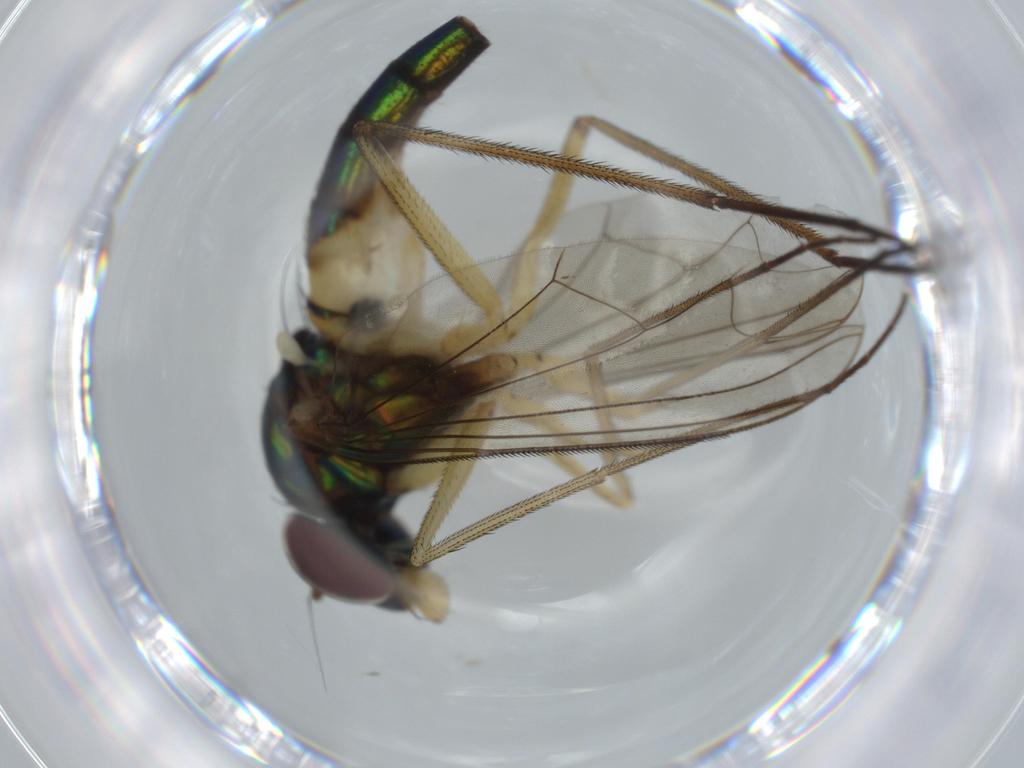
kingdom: Animalia
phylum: Arthropoda
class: Insecta
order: Diptera
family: Dolichopodidae
